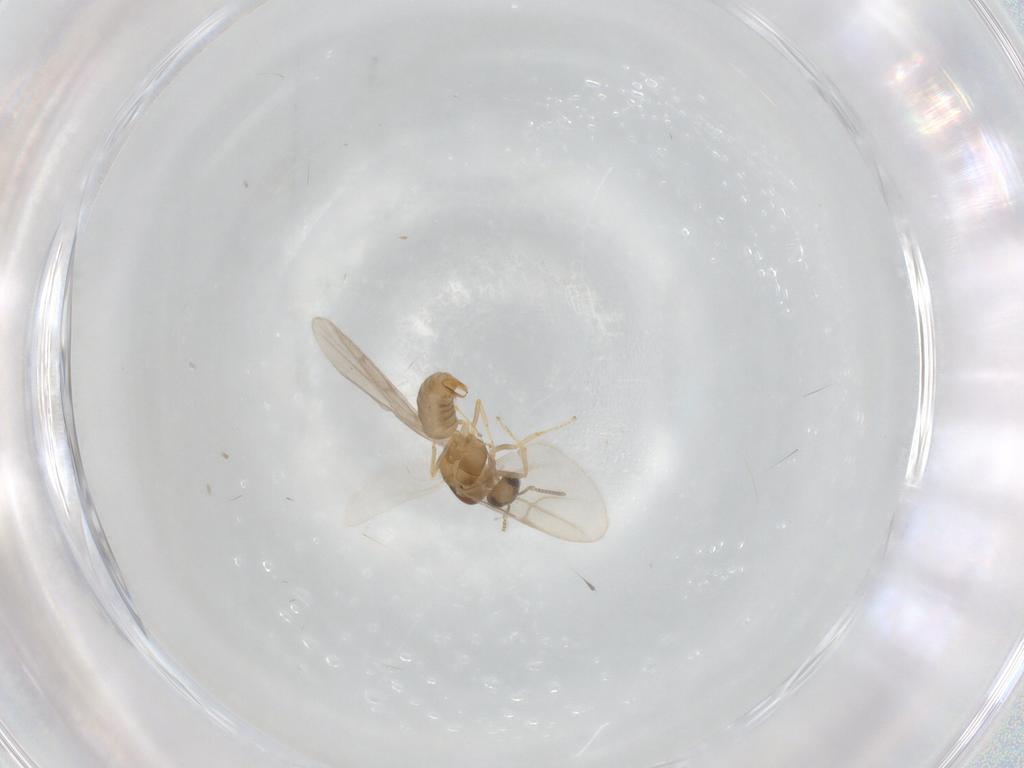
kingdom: Animalia
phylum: Arthropoda
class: Insecta
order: Hymenoptera
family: Formicidae
